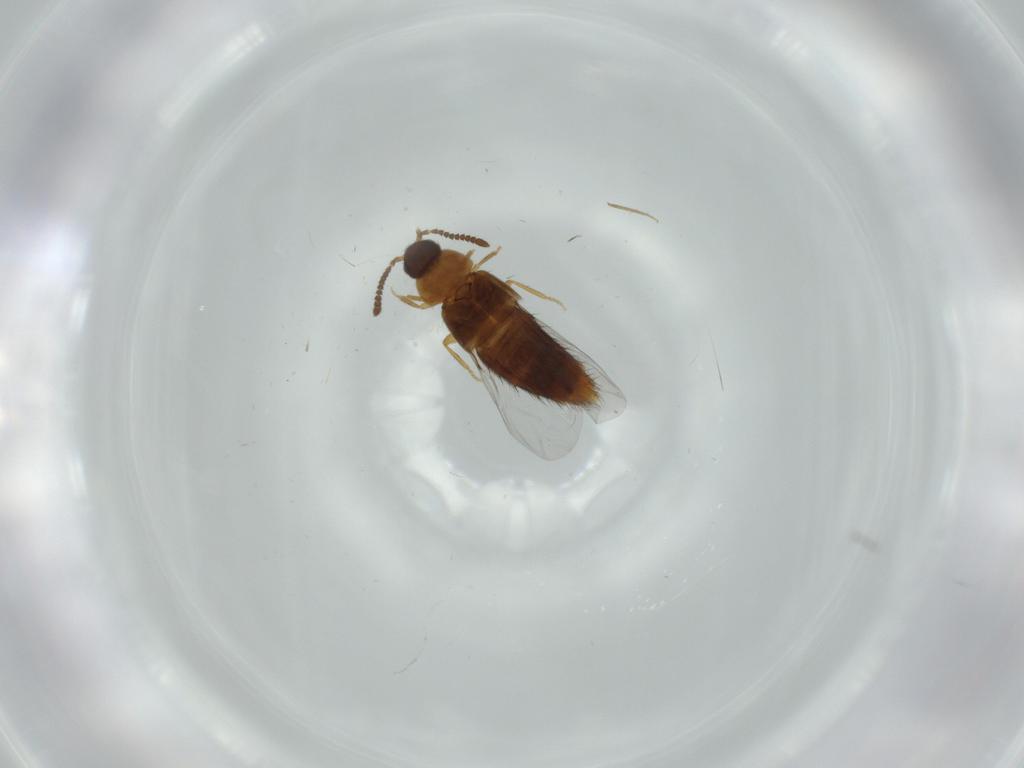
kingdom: Animalia
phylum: Arthropoda
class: Insecta
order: Coleoptera
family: Staphylinidae
